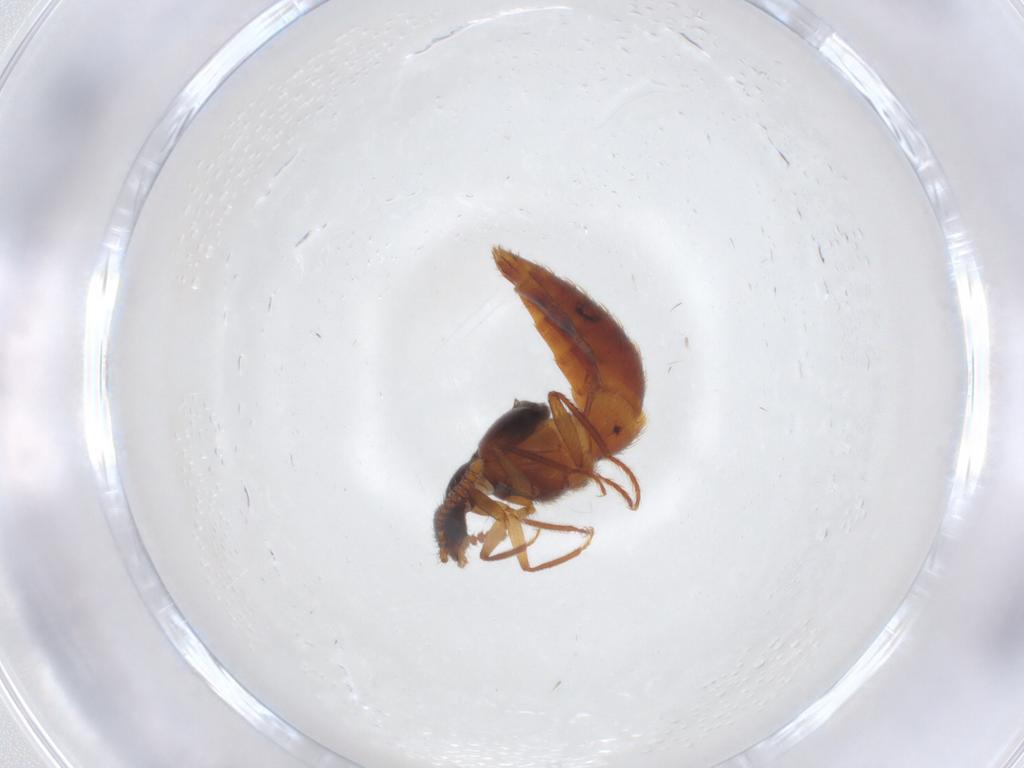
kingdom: Animalia
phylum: Arthropoda
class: Insecta
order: Coleoptera
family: Staphylinidae
